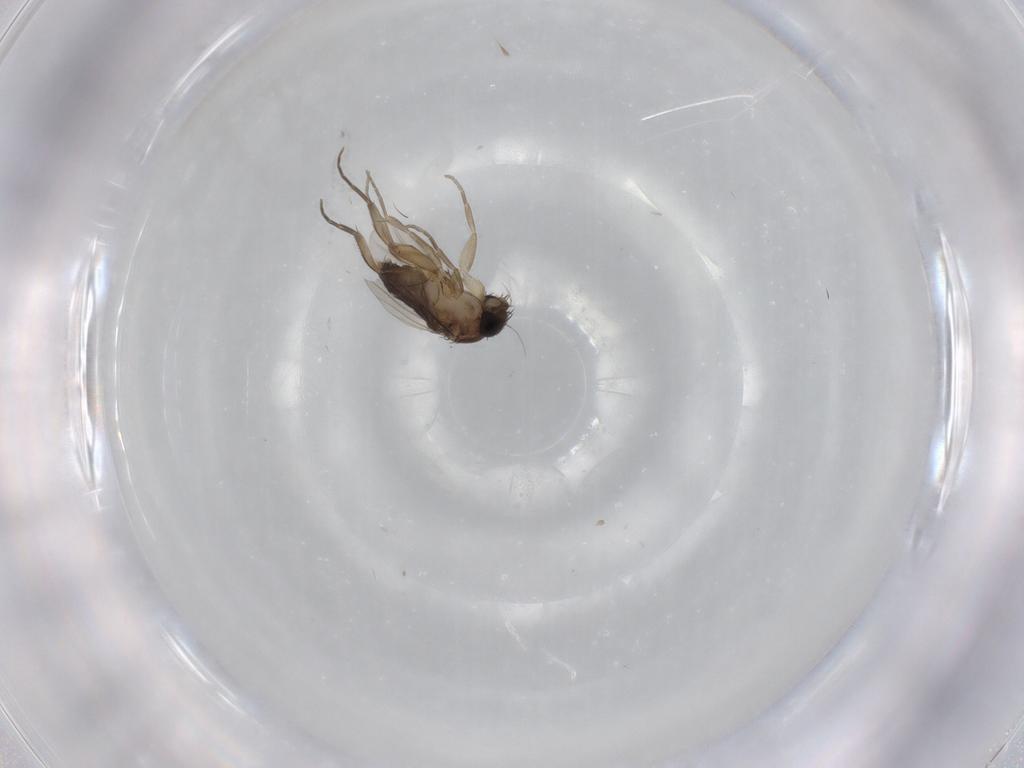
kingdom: Animalia
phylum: Arthropoda
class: Insecta
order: Diptera
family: Phoridae
